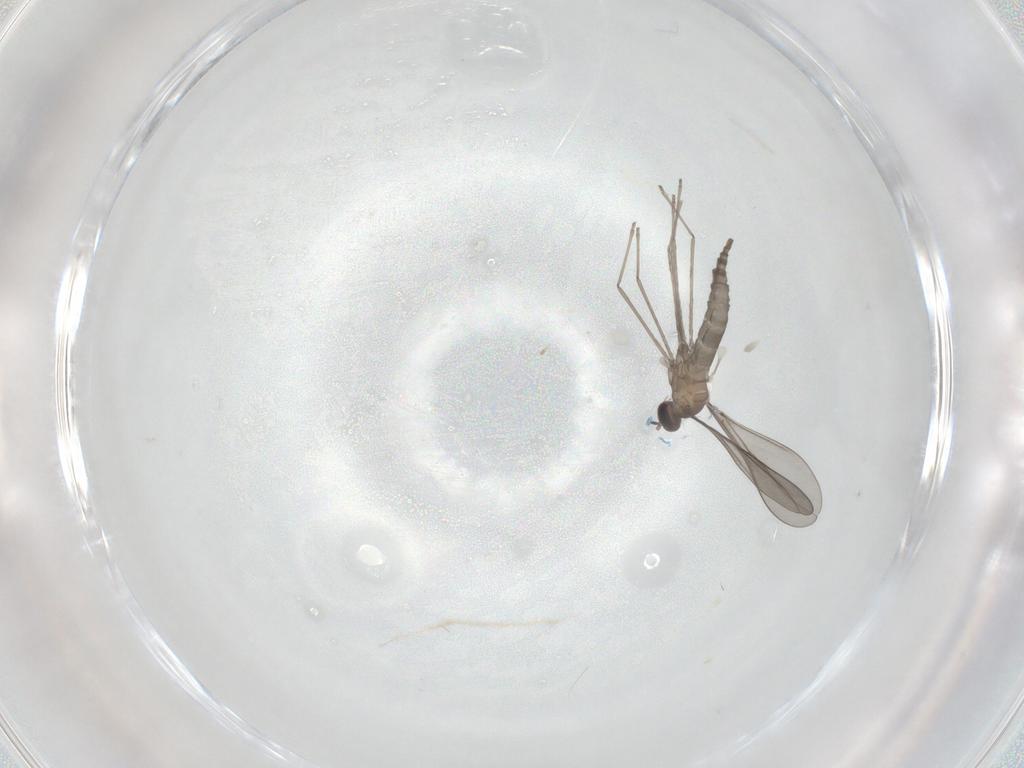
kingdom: Animalia
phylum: Arthropoda
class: Insecta
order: Diptera
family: Cecidomyiidae
